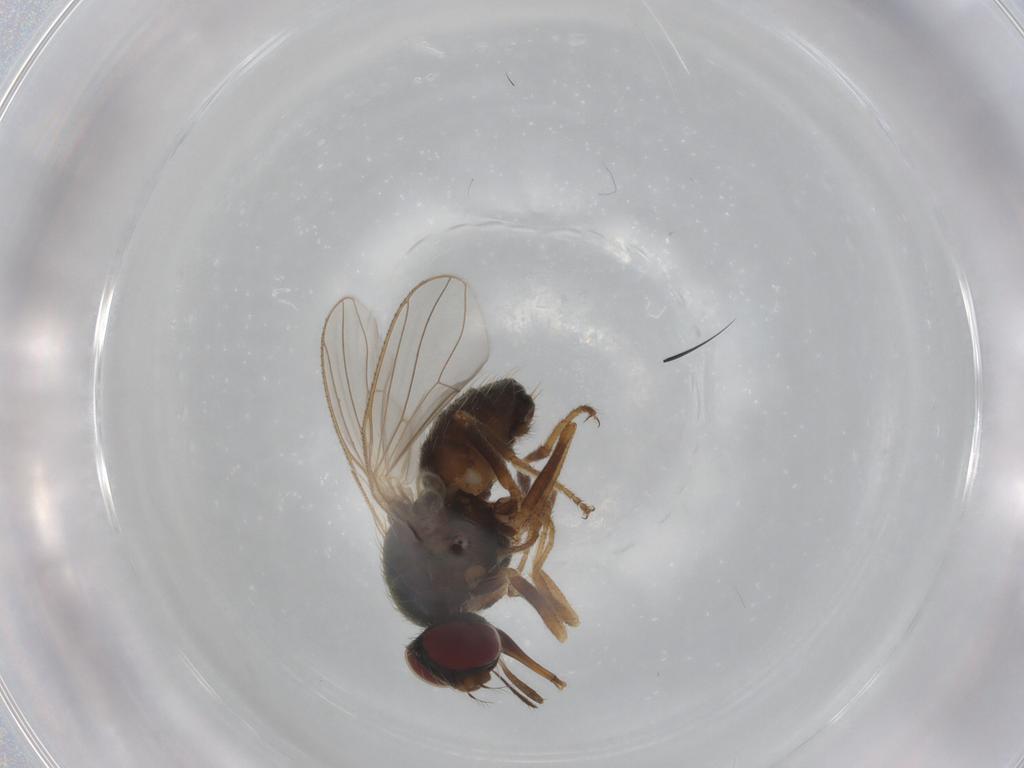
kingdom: Animalia
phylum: Arthropoda
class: Insecta
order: Diptera
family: Muscidae
